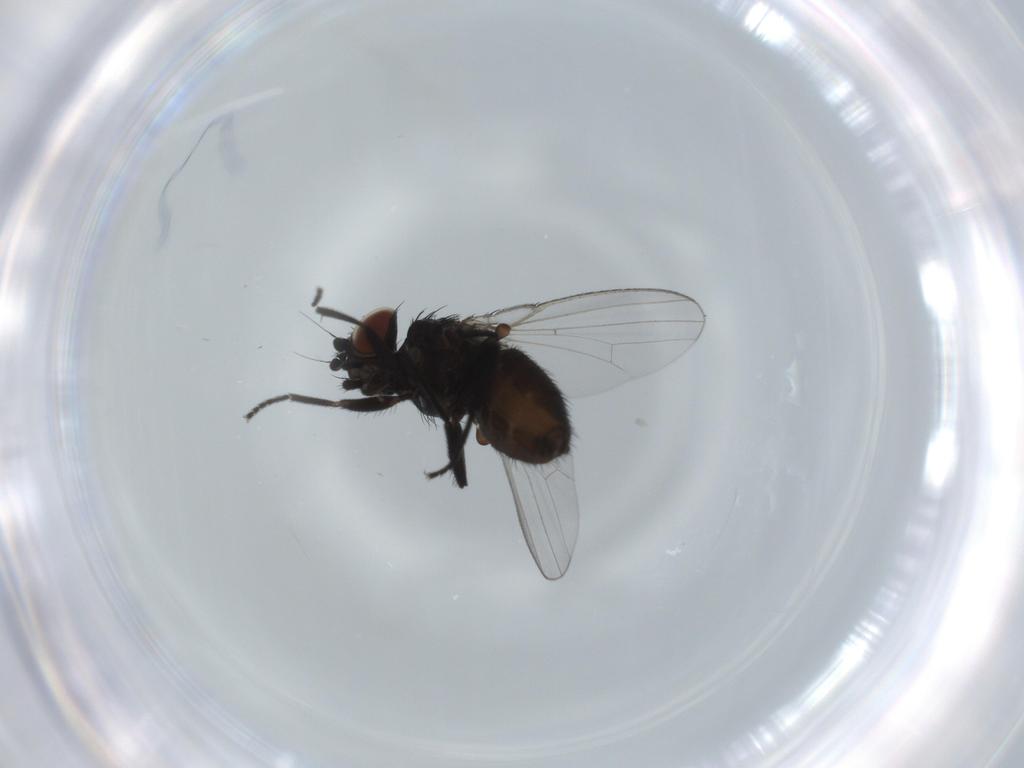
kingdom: Animalia
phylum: Arthropoda
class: Insecta
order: Diptera
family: Milichiidae
